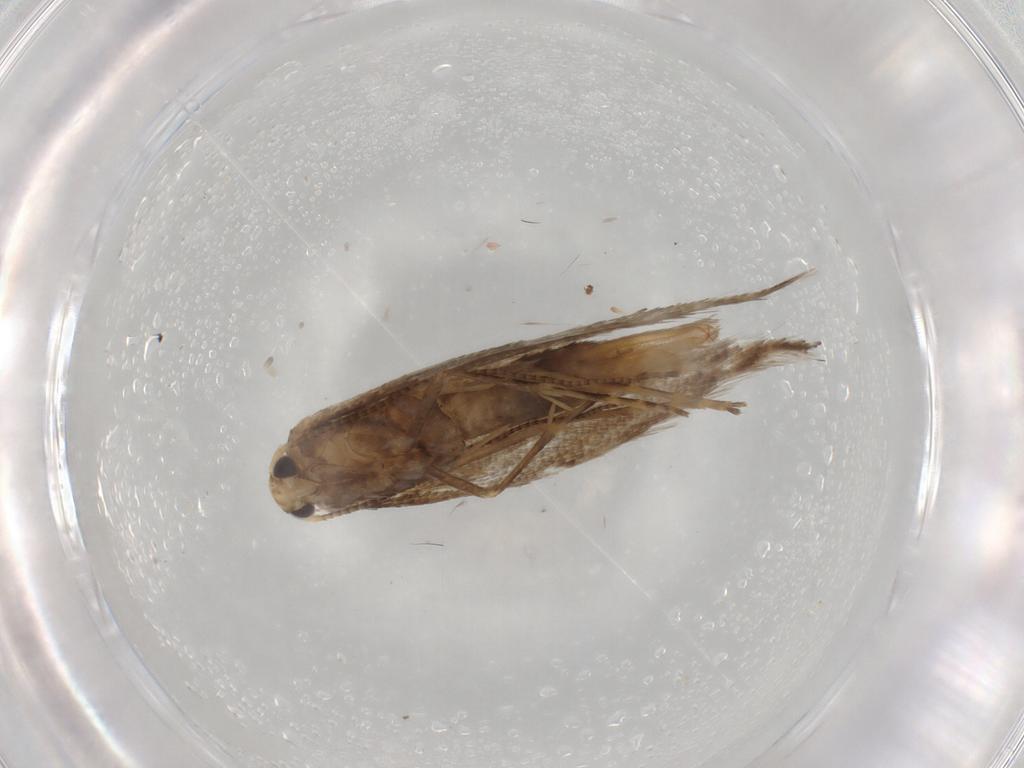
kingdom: Animalia
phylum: Arthropoda
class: Insecta
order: Lepidoptera
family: Gracillariidae
